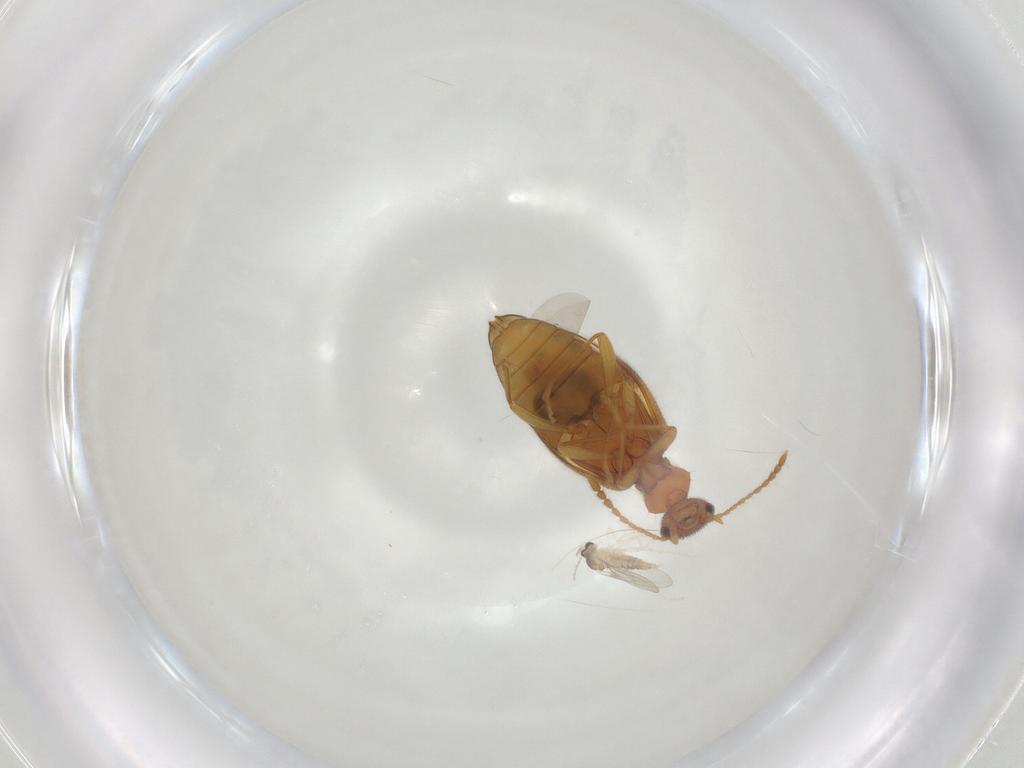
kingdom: Animalia
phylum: Arthropoda
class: Insecta
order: Diptera
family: Cecidomyiidae
